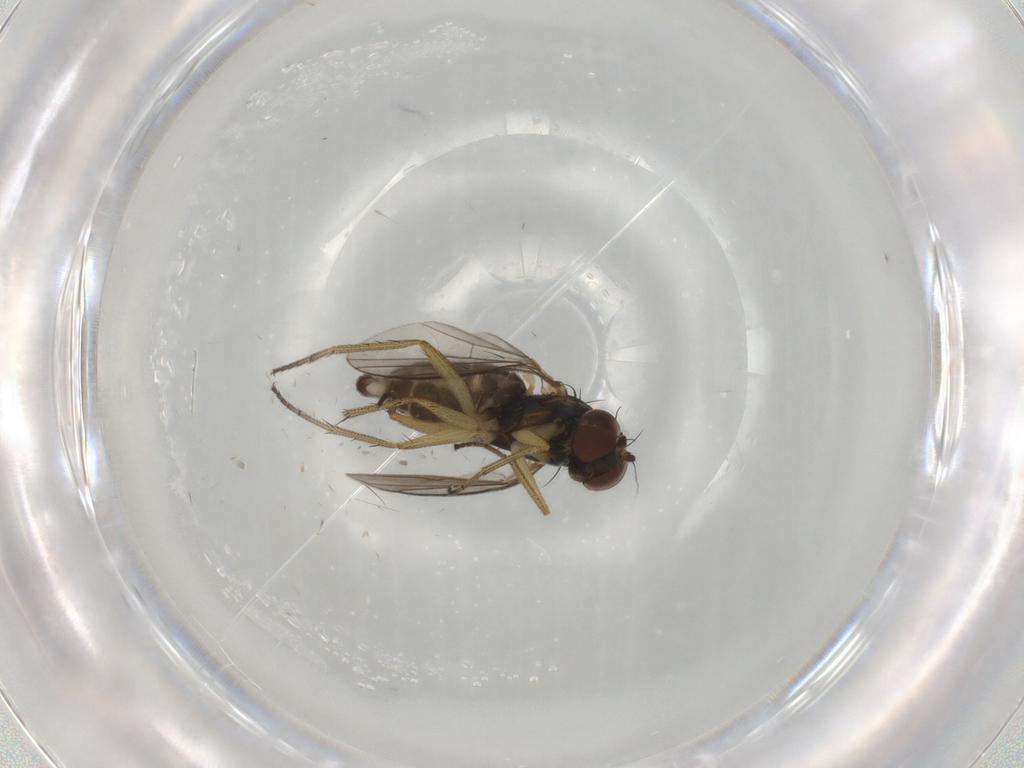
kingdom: Animalia
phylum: Arthropoda
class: Insecta
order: Diptera
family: Dolichopodidae
